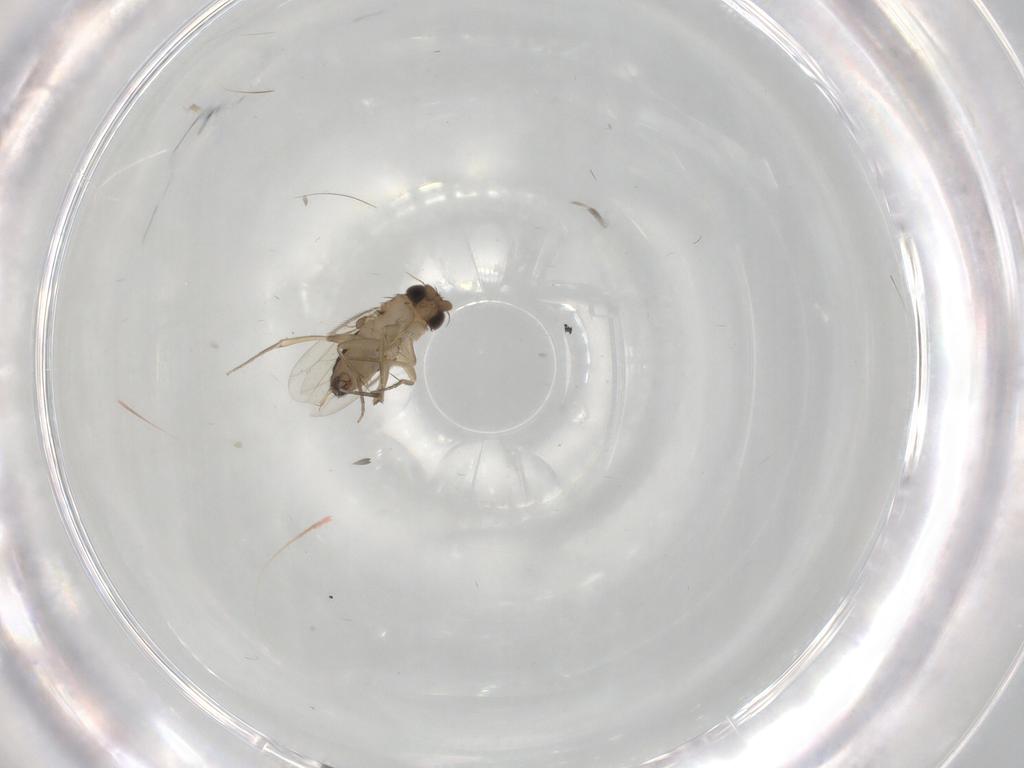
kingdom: Animalia
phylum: Arthropoda
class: Insecta
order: Diptera
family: Phoridae
